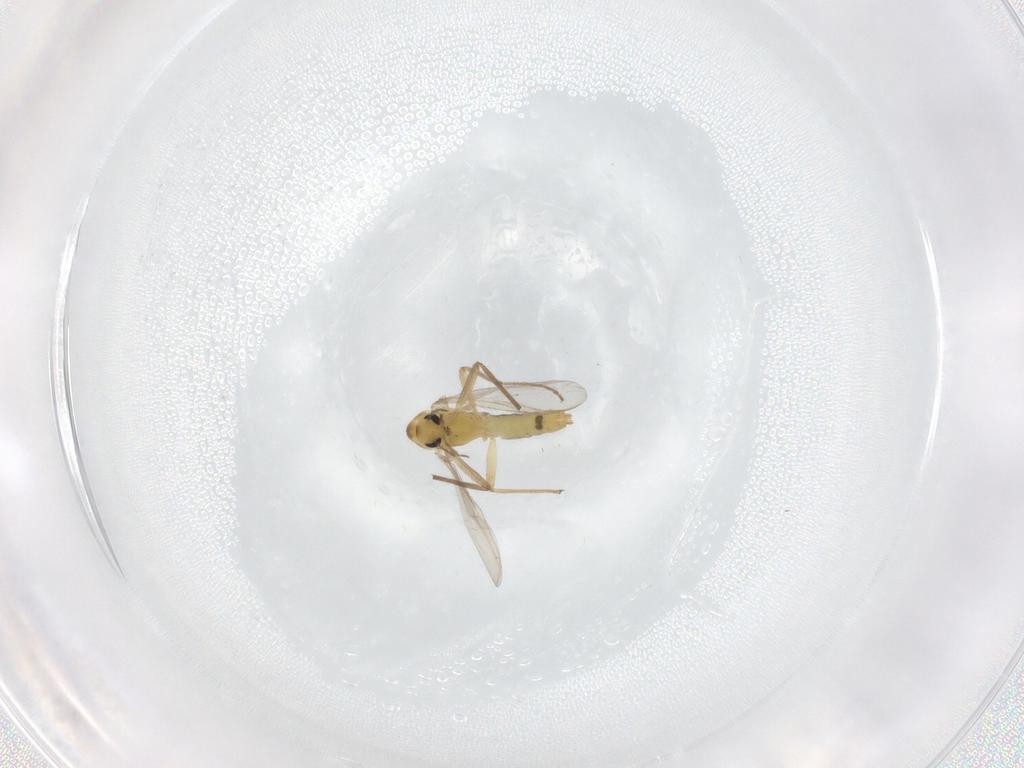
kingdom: Animalia
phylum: Arthropoda
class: Insecta
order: Diptera
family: Chironomidae
